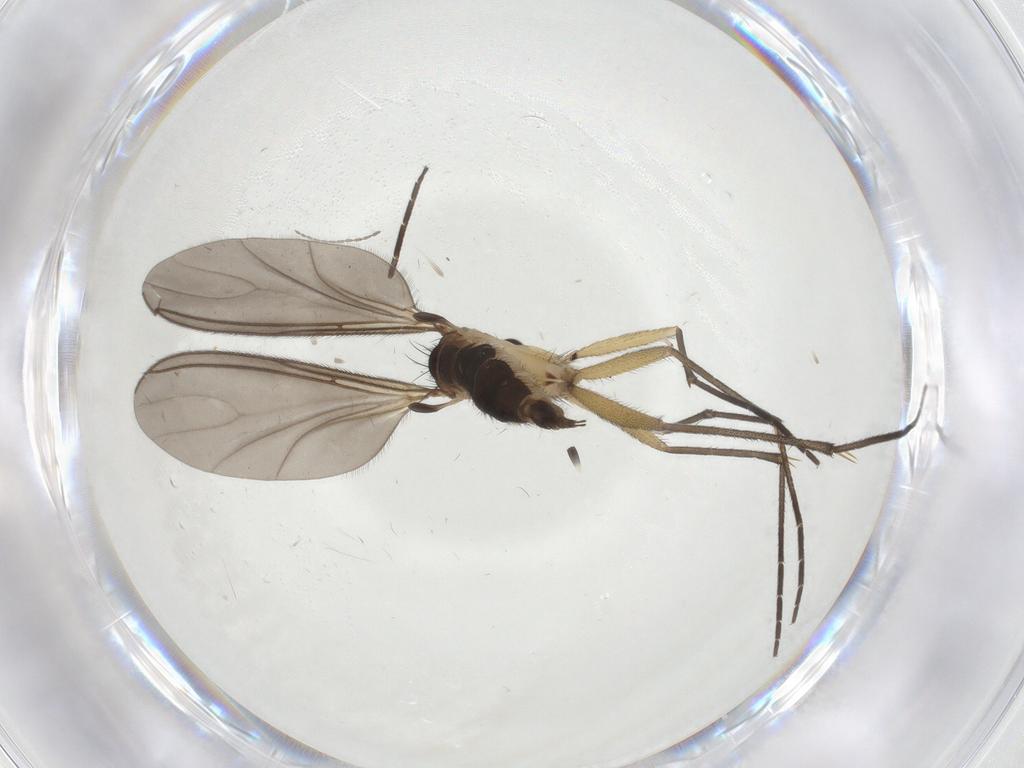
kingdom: Animalia
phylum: Arthropoda
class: Insecta
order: Diptera
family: Sciaridae
